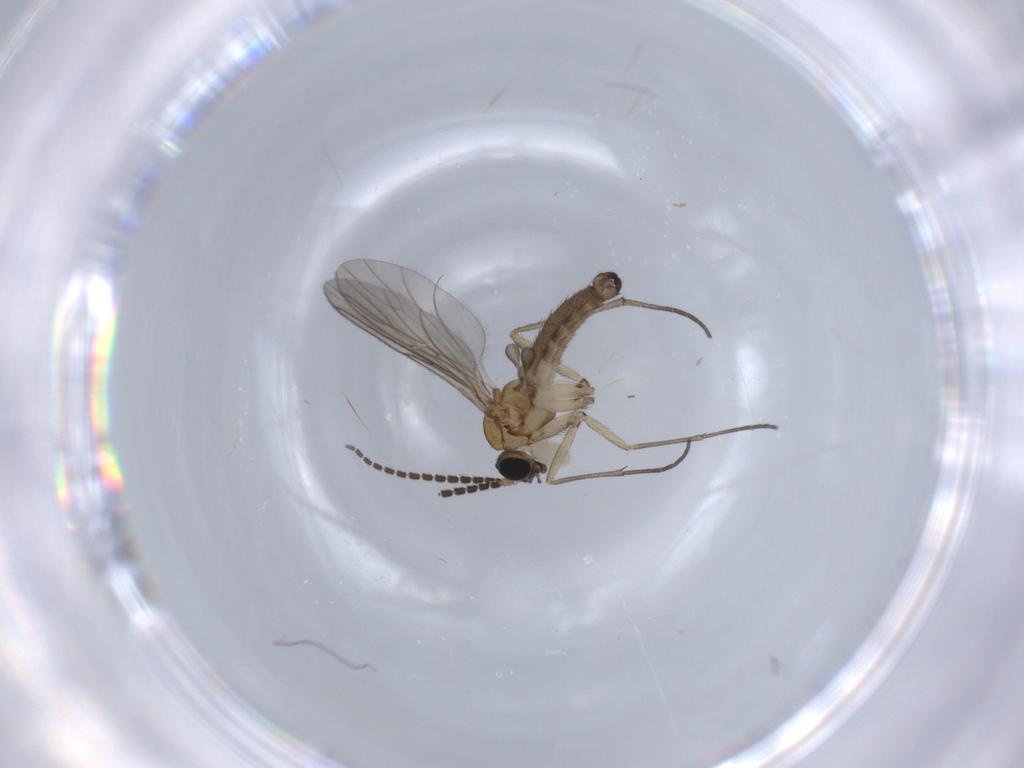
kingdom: Animalia
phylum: Arthropoda
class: Insecta
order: Diptera
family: Sciaridae
